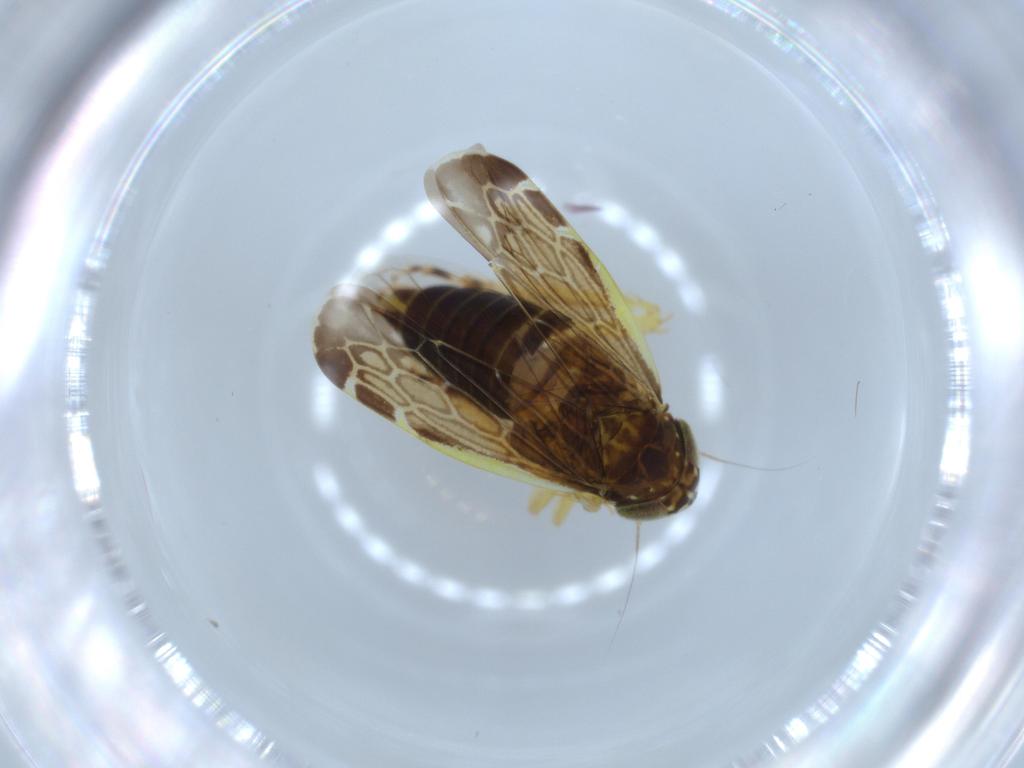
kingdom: Animalia
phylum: Arthropoda
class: Insecta
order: Hemiptera
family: Cicadellidae
